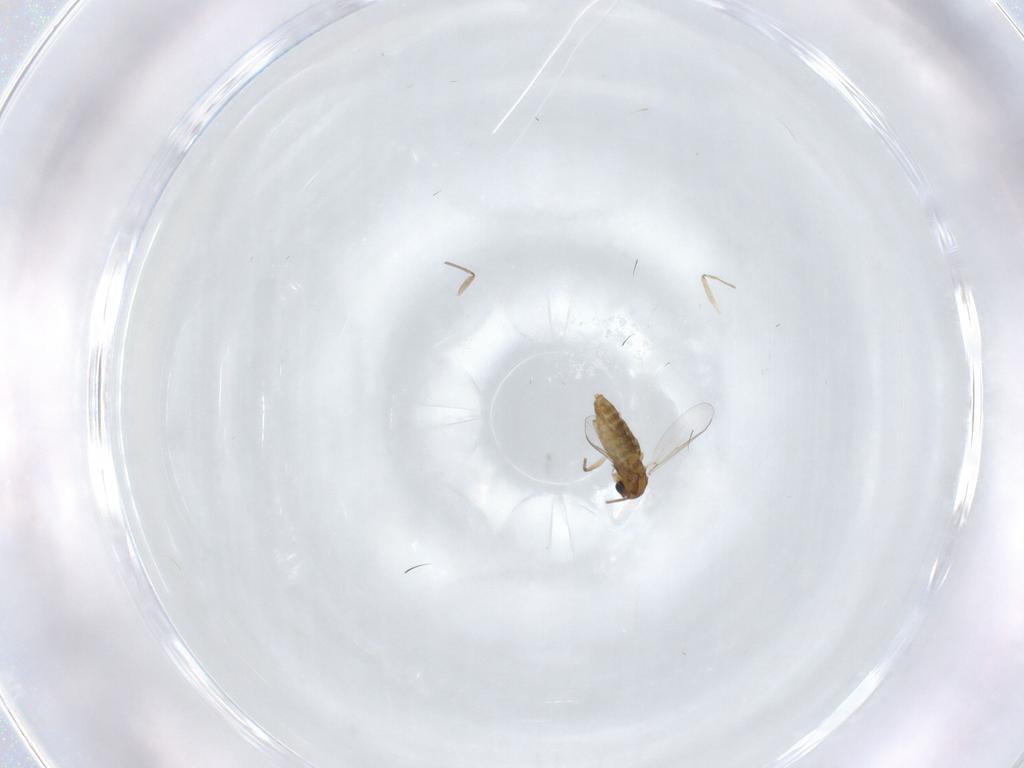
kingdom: Animalia
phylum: Arthropoda
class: Insecta
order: Diptera
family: Chironomidae
